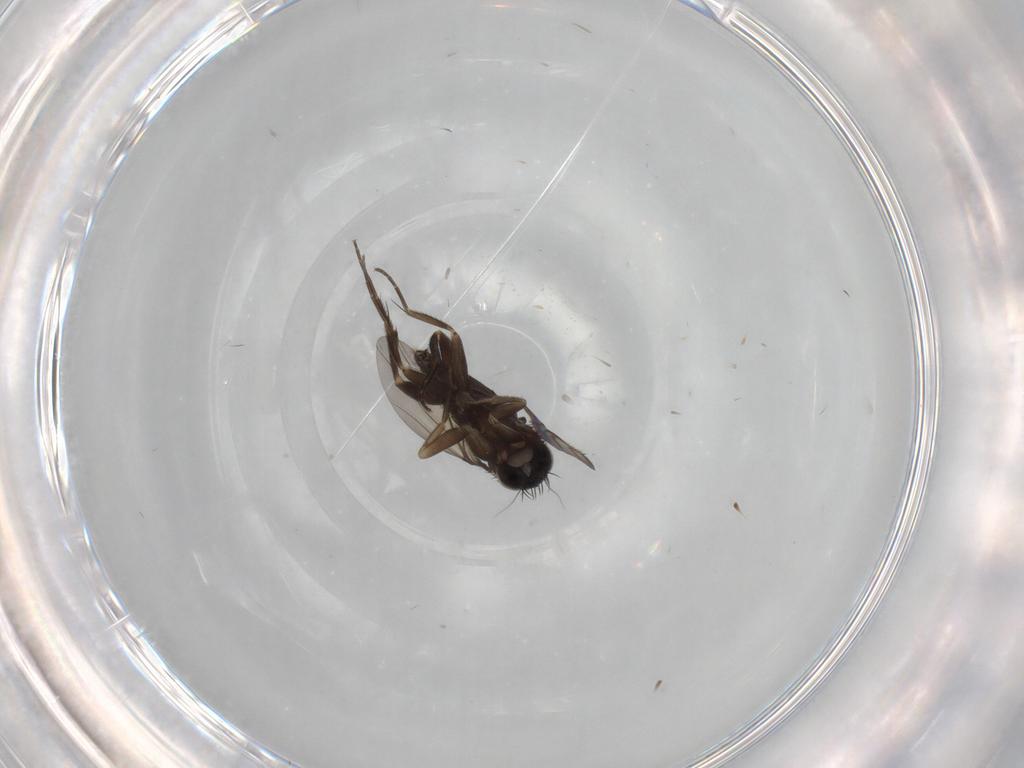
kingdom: Animalia
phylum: Arthropoda
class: Insecta
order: Diptera
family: Phoridae
